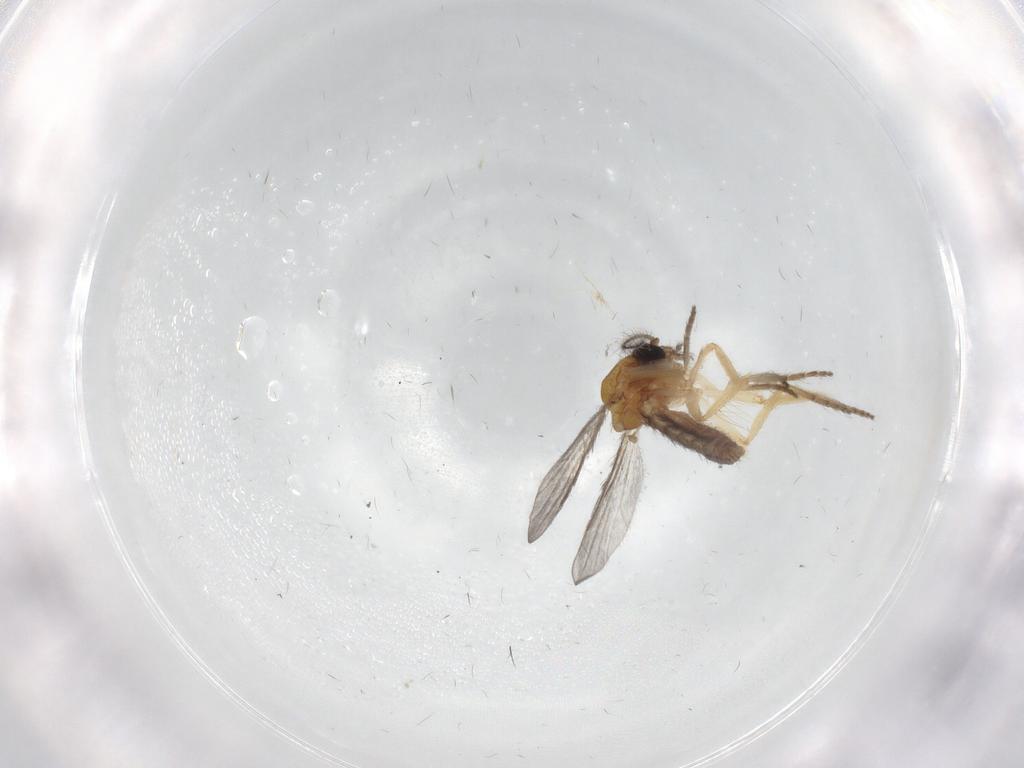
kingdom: Animalia
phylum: Arthropoda
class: Insecta
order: Diptera
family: Ceratopogonidae
